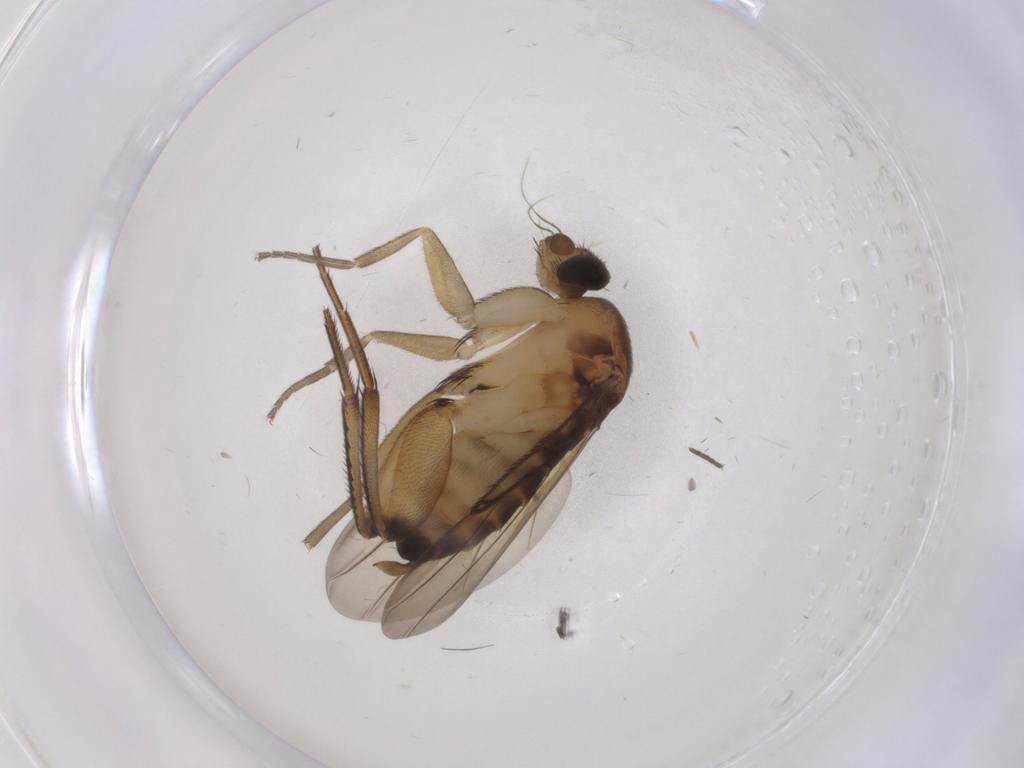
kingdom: Animalia
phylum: Arthropoda
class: Insecta
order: Diptera
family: Phoridae
